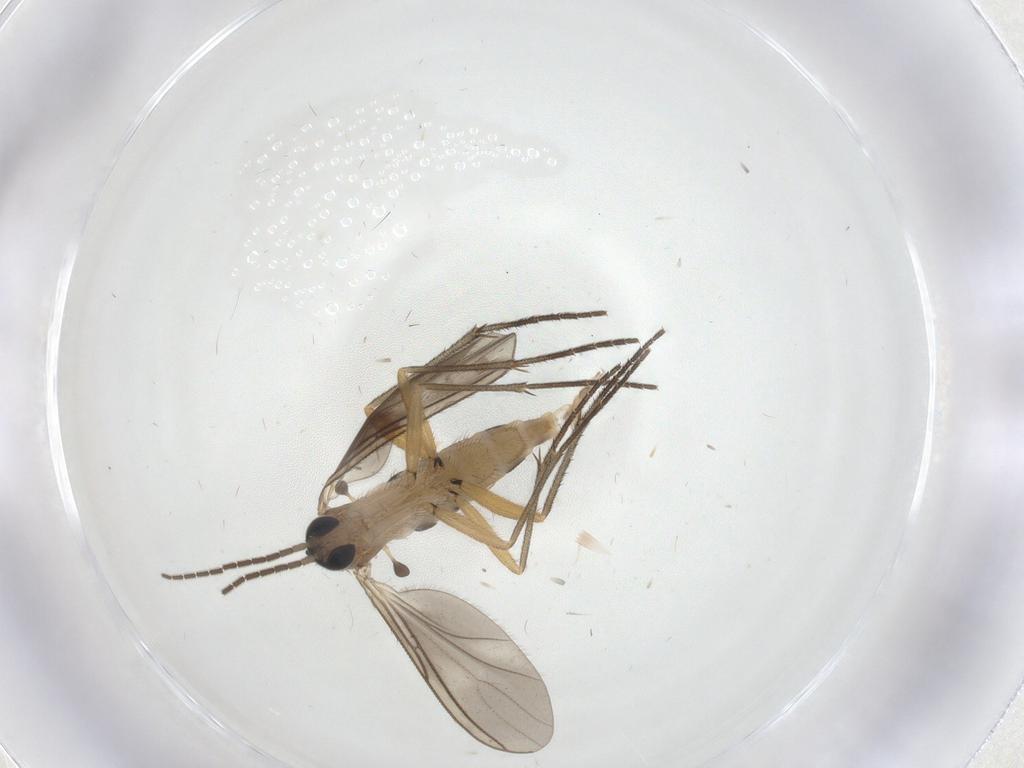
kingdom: Animalia
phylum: Arthropoda
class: Insecta
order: Diptera
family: Sciaridae
